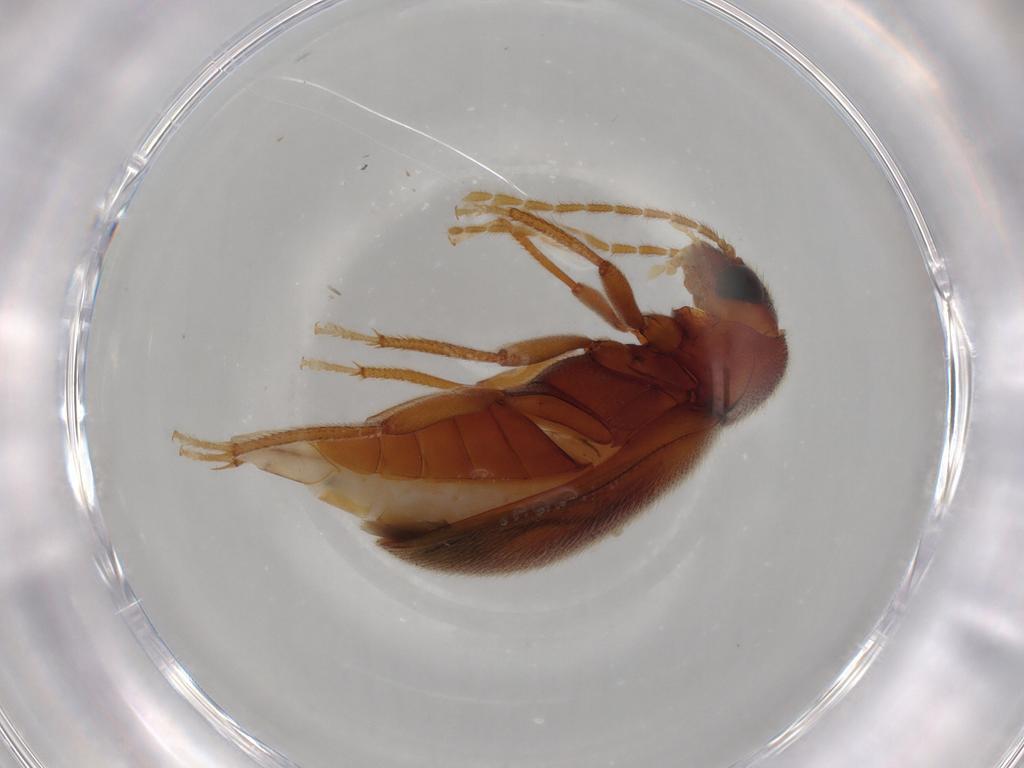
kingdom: Animalia
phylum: Arthropoda
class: Insecta
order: Coleoptera
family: Ptilodactylidae
